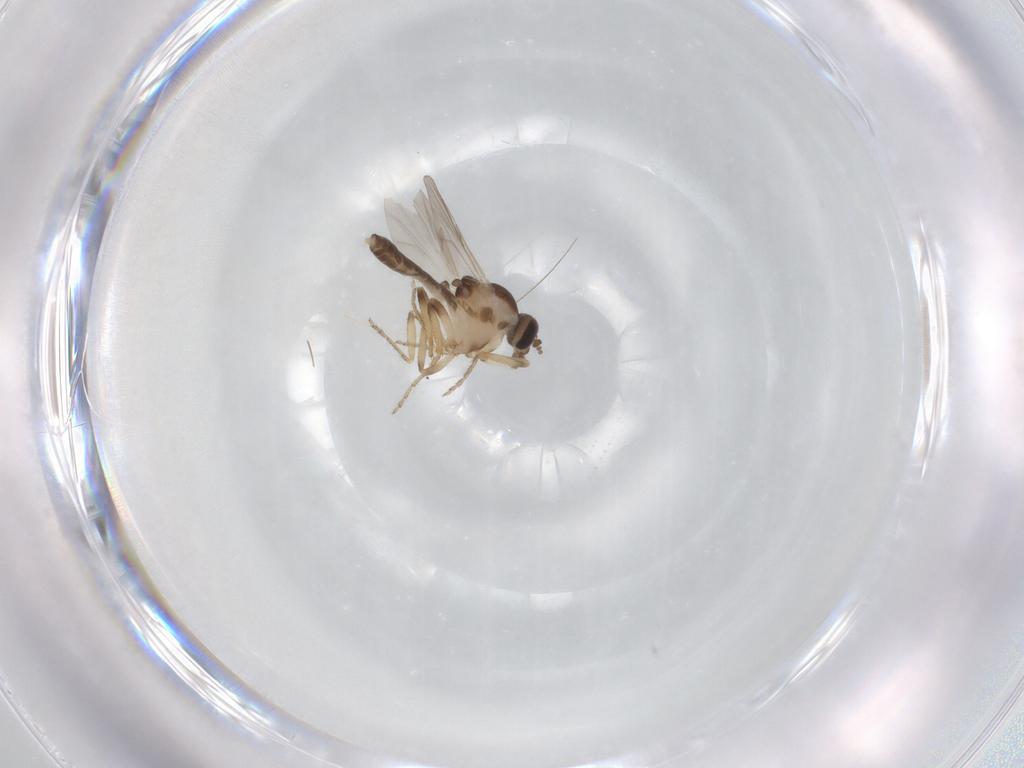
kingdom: Animalia
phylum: Arthropoda
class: Insecta
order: Diptera
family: Ceratopogonidae
